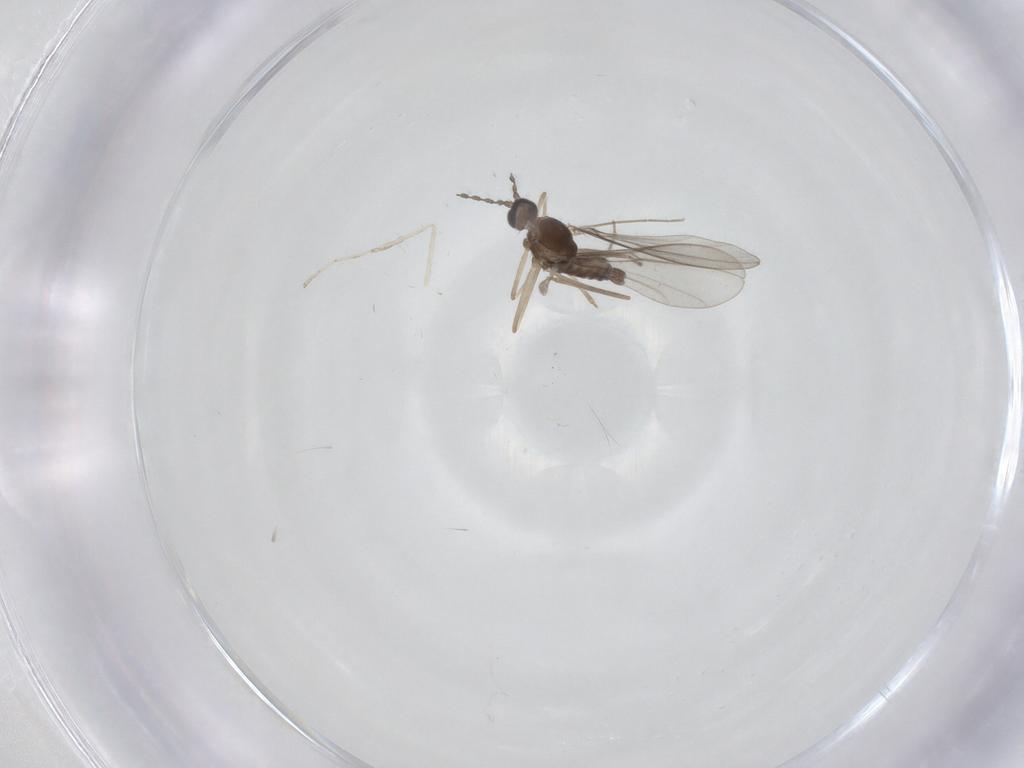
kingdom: Animalia
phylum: Arthropoda
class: Insecta
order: Diptera
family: Cecidomyiidae
